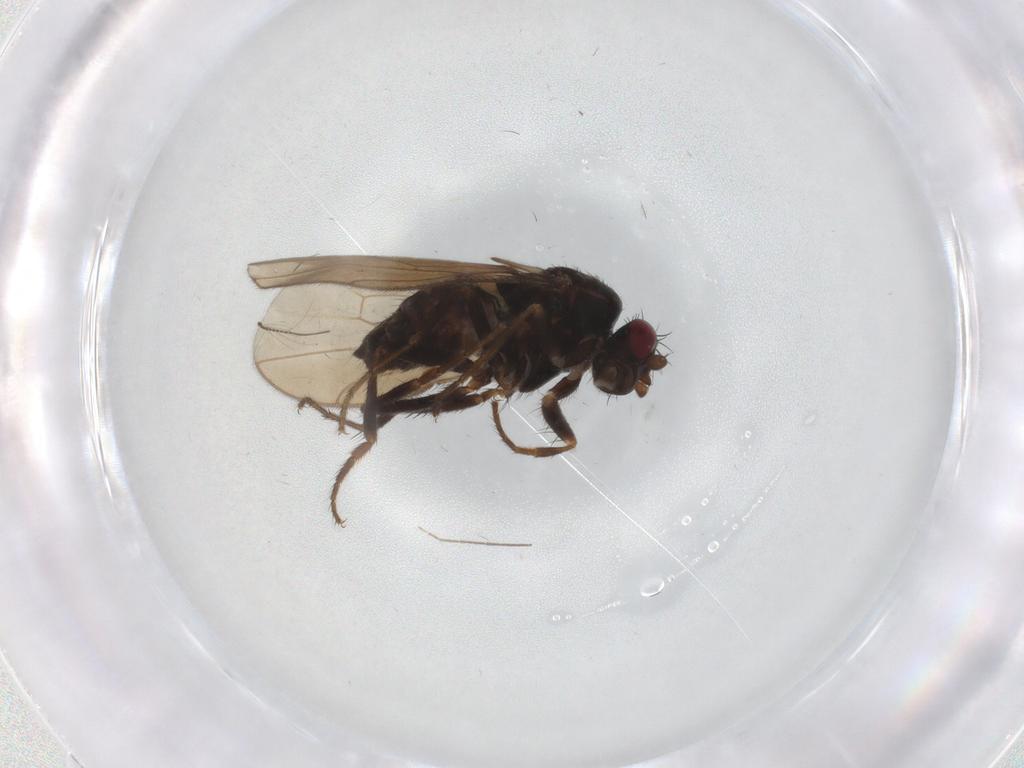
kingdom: Animalia
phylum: Arthropoda
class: Insecta
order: Diptera
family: Sphaeroceridae
